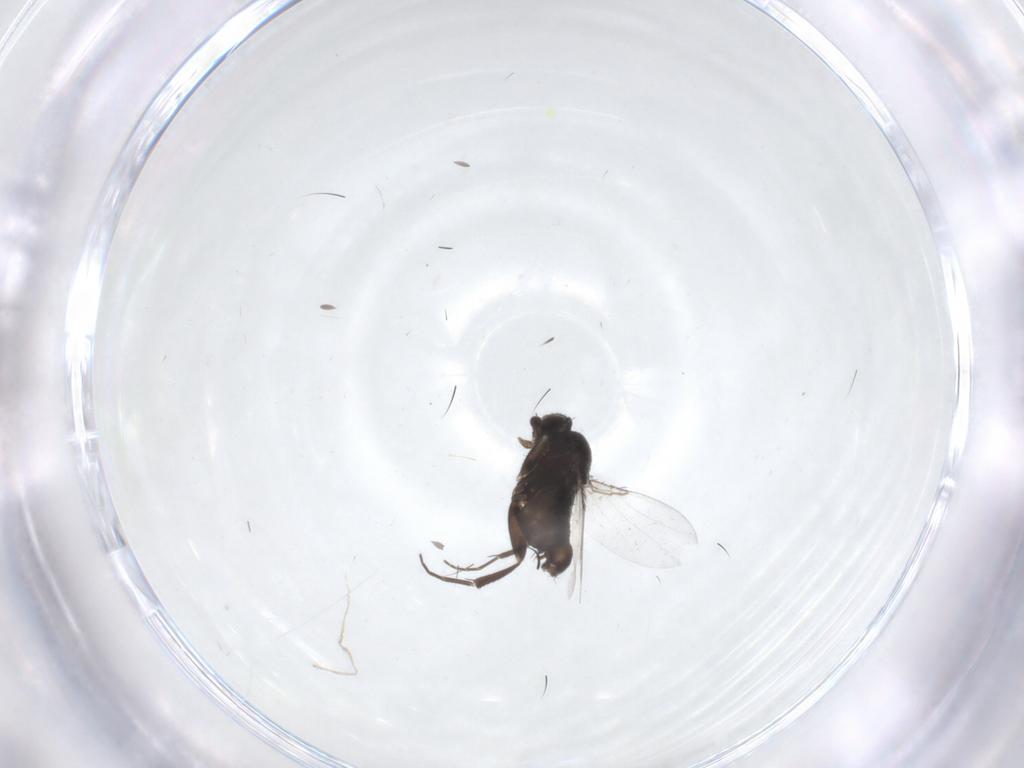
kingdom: Animalia
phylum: Arthropoda
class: Insecta
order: Diptera
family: Phoridae
